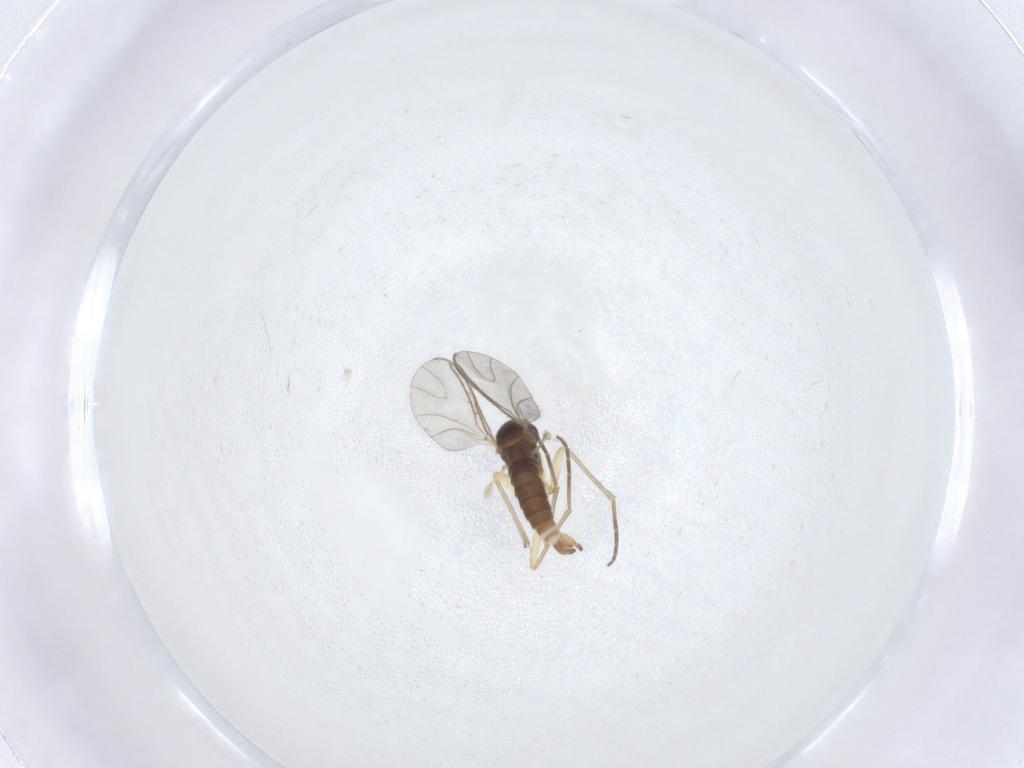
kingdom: Animalia
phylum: Arthropoda
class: Insecta
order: Diptera
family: Sciaridae
